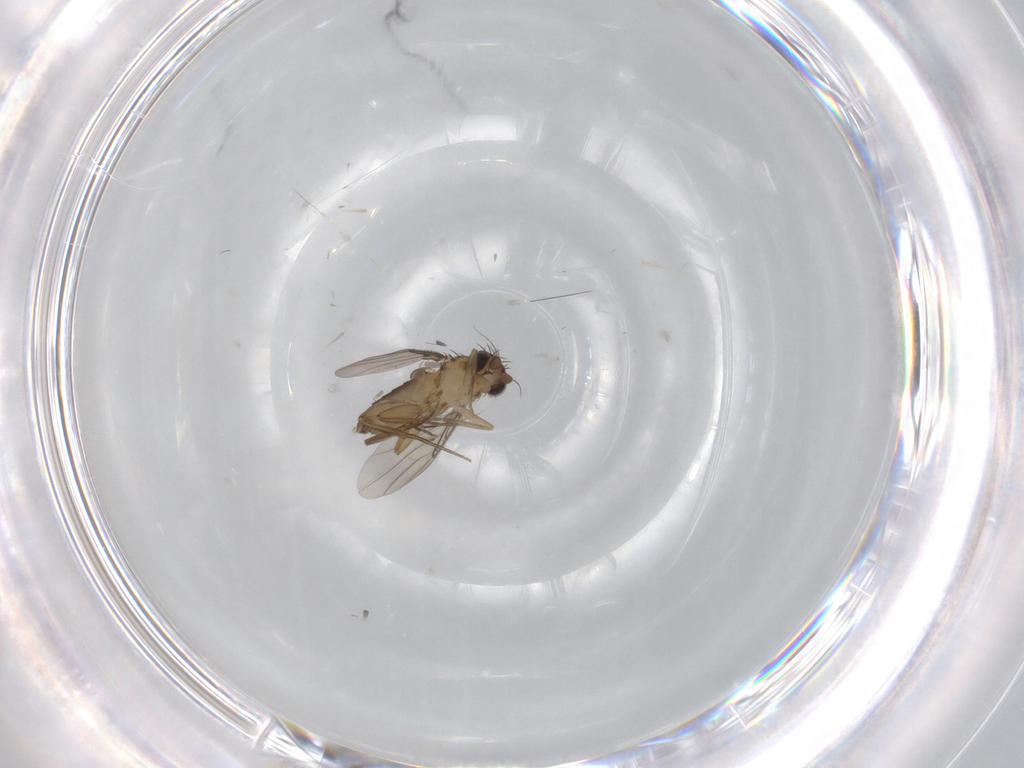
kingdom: Animalia
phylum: Arthropoda
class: Insecta
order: Diptera
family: Phoridae
